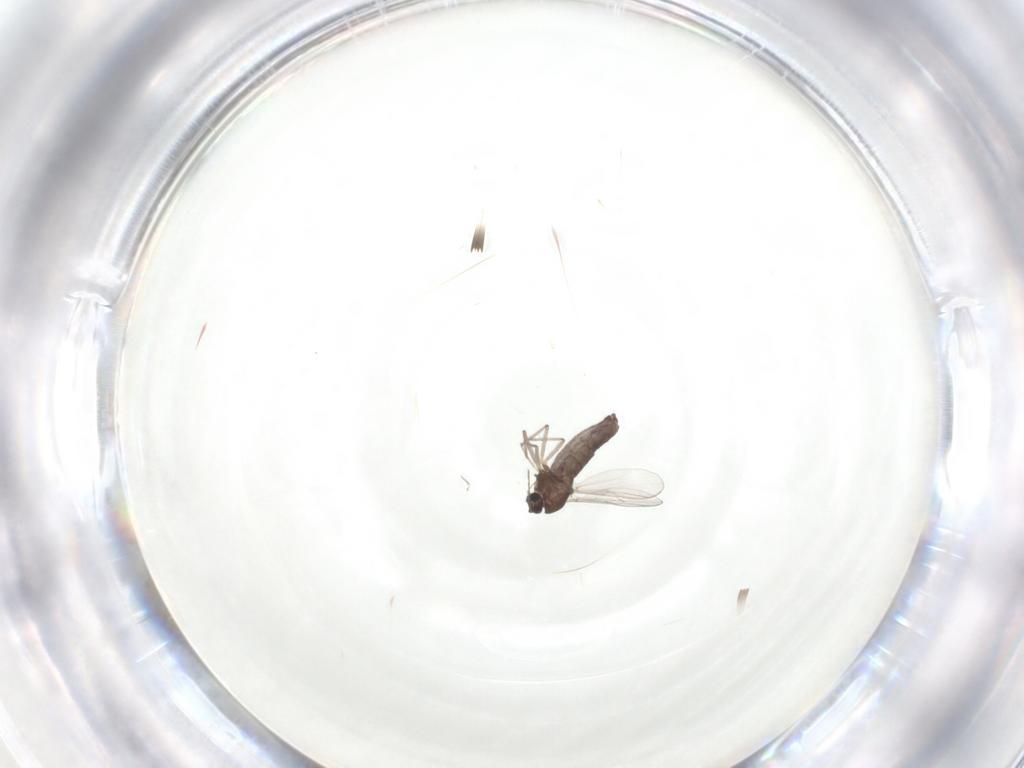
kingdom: Animalia
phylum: Arthropoda
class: Insecta
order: Diptera
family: Chironomidae
